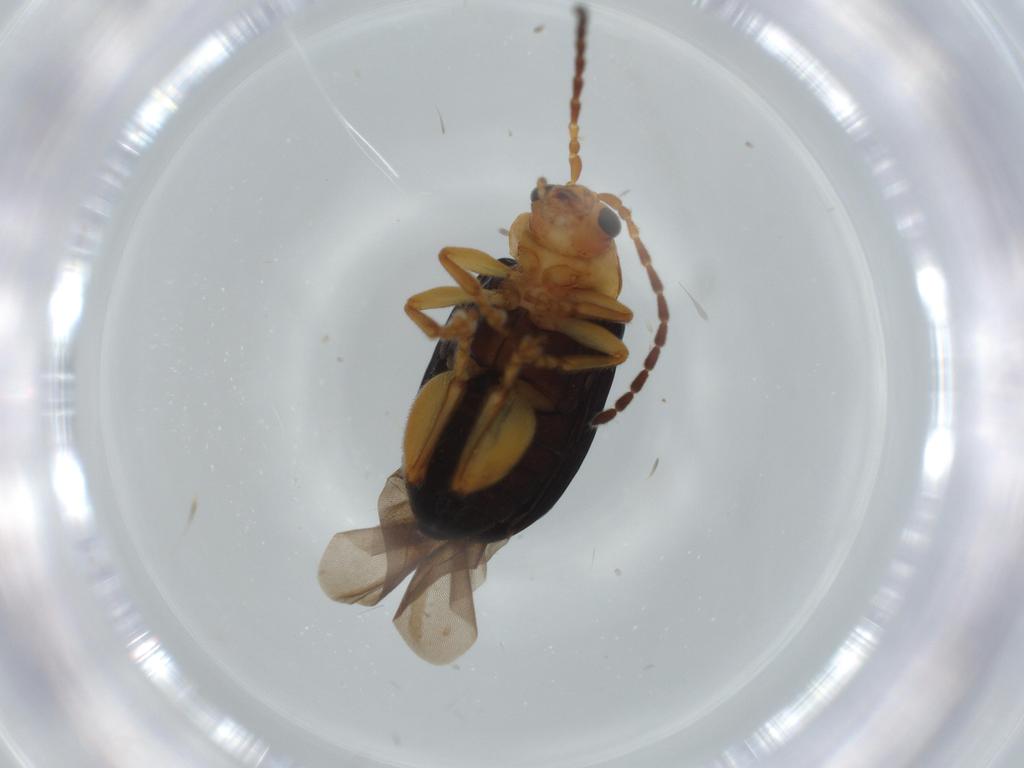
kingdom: Animalia
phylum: Arthropoda
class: Insecta
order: Coleoptera
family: Chrysomelidae
